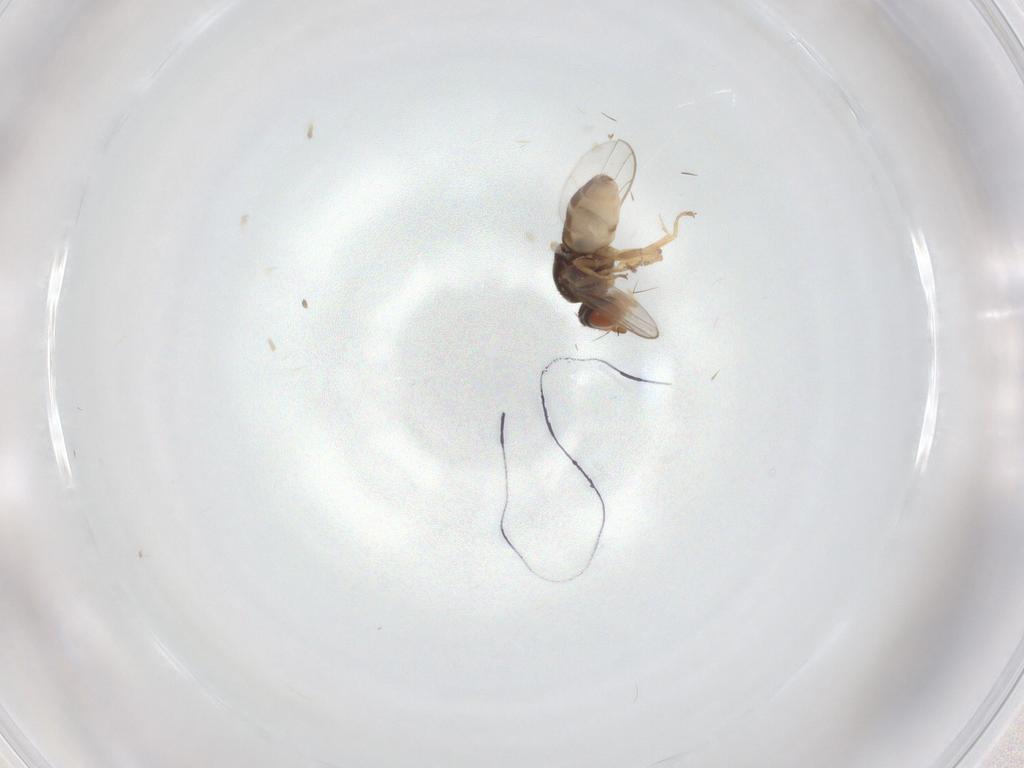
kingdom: Animalia
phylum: Arthropoda
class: Insecta
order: Diptera
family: Chloropidae
